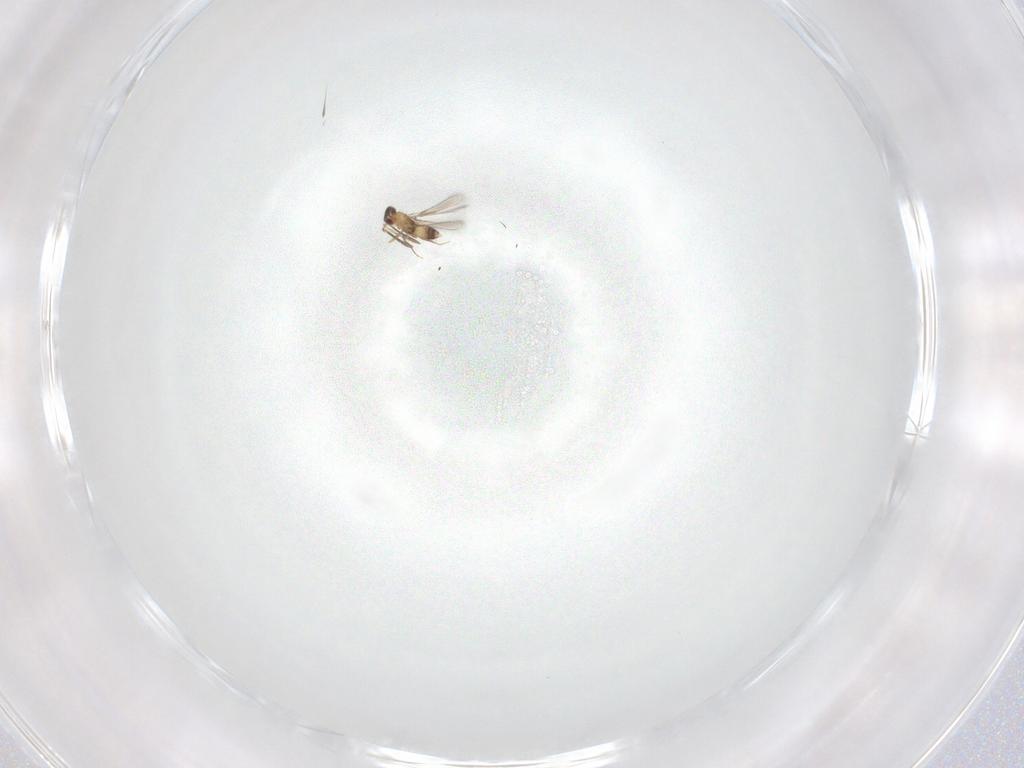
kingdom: Animalia
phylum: Arthropoda
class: Insecta
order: Hymenoptera
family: Mymaridae
